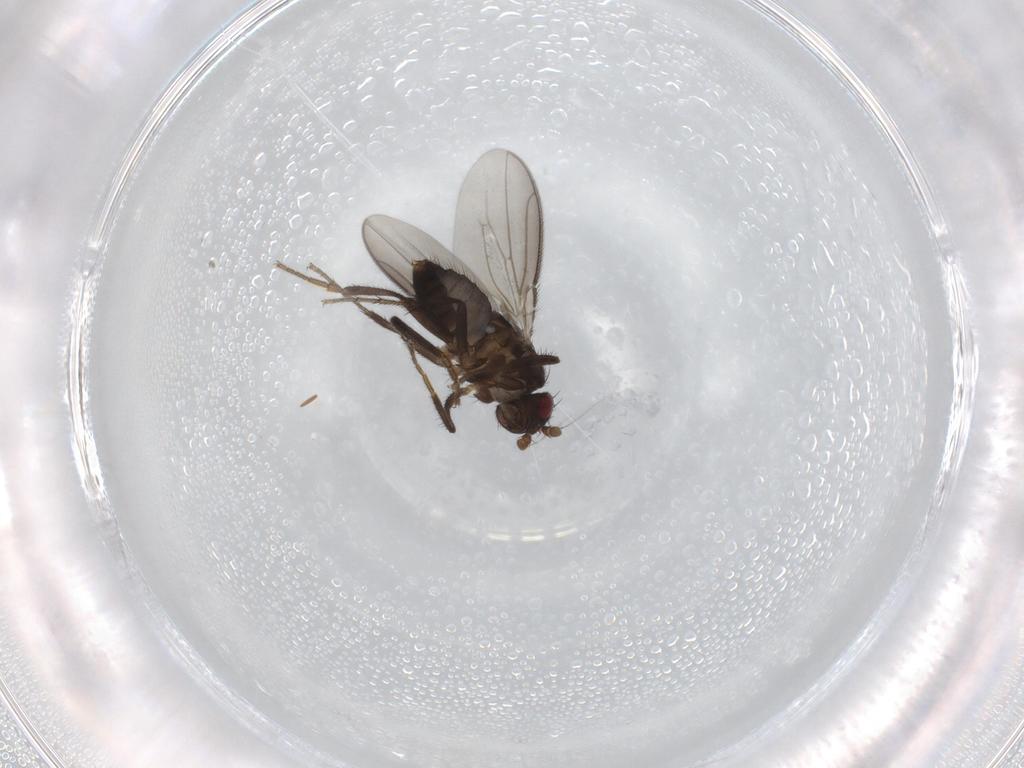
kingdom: Animalia
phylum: Arthropoda
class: Insecta
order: Diptera
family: Sphaeroceridae
